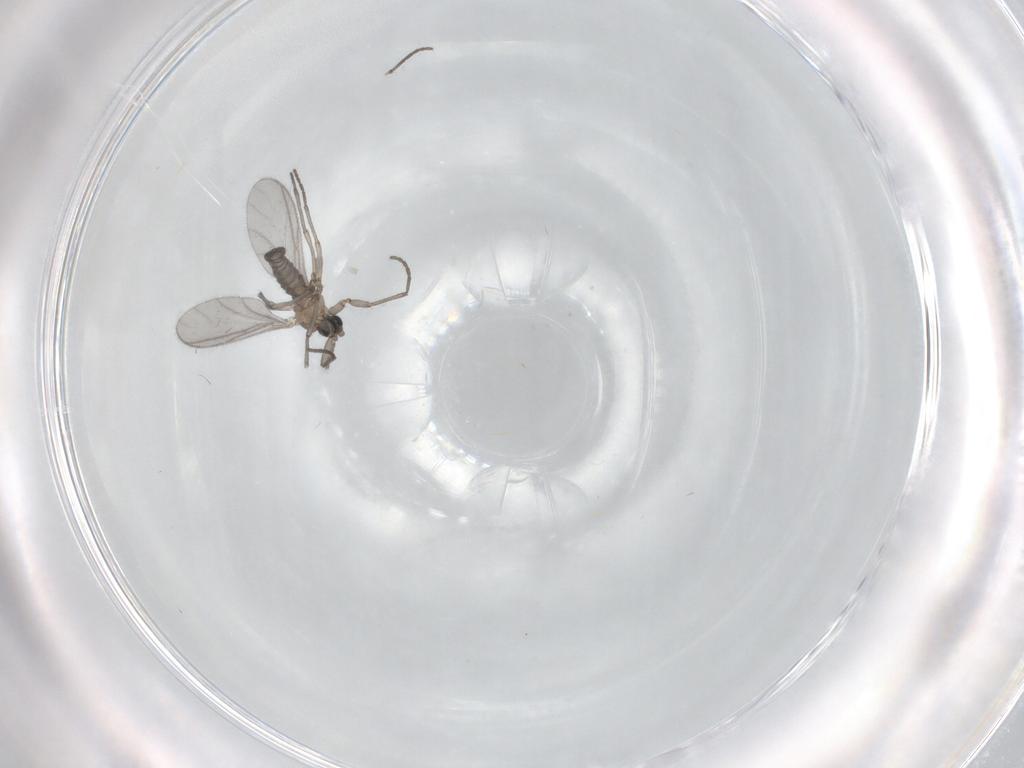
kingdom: Animalia
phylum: Arthropoda
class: Insecta
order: Diptera
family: Sciaridae
